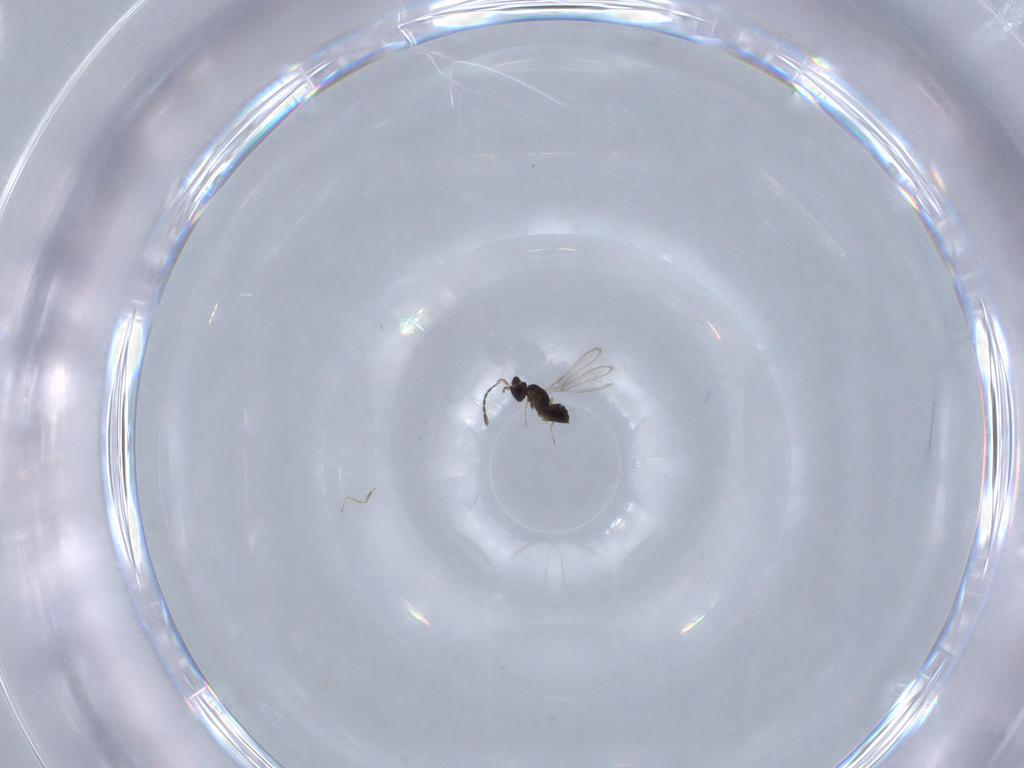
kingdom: Animalia
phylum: Arthropoda
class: Insecta
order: Hymenoptera
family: Mymaridae
